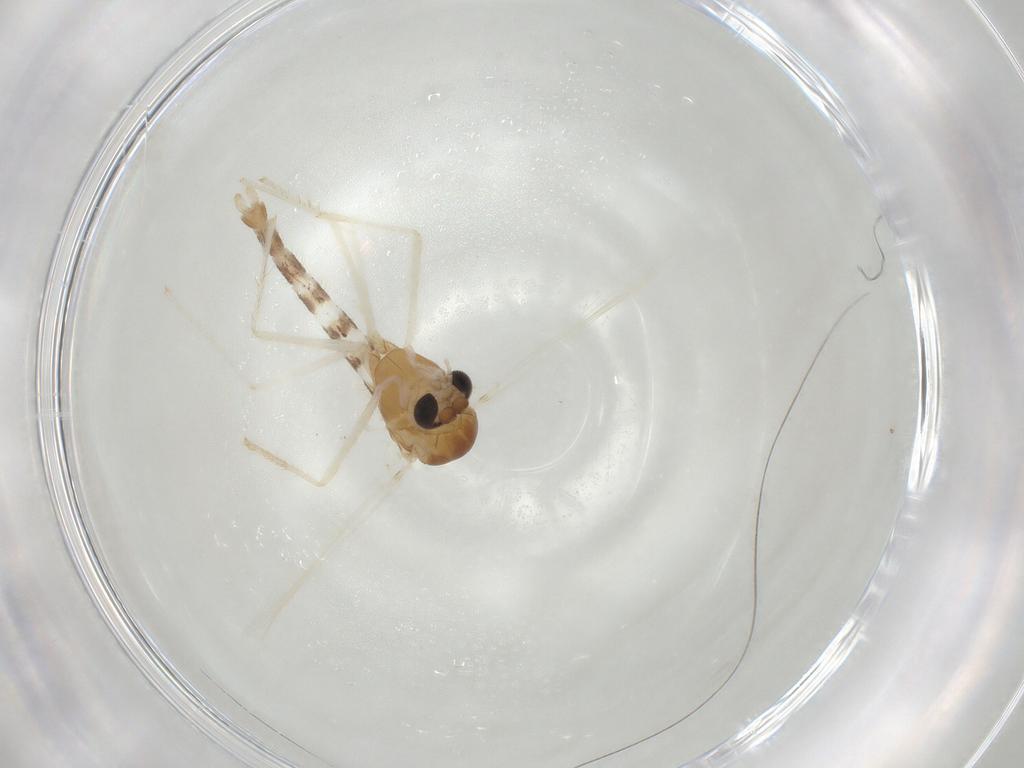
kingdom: Animalia
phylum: Arthropoda
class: Insecta
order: Diptera
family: Chironomidae
